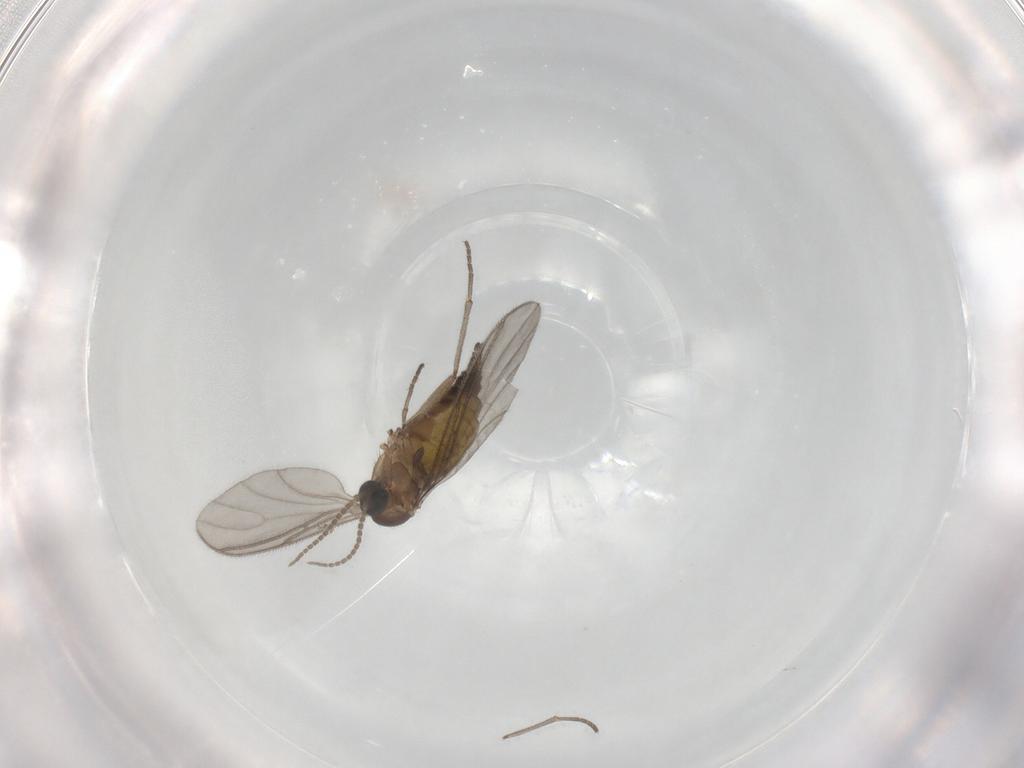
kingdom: Animalia
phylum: Arthropoda
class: Insecta
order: Diptera
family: Sciaridae
